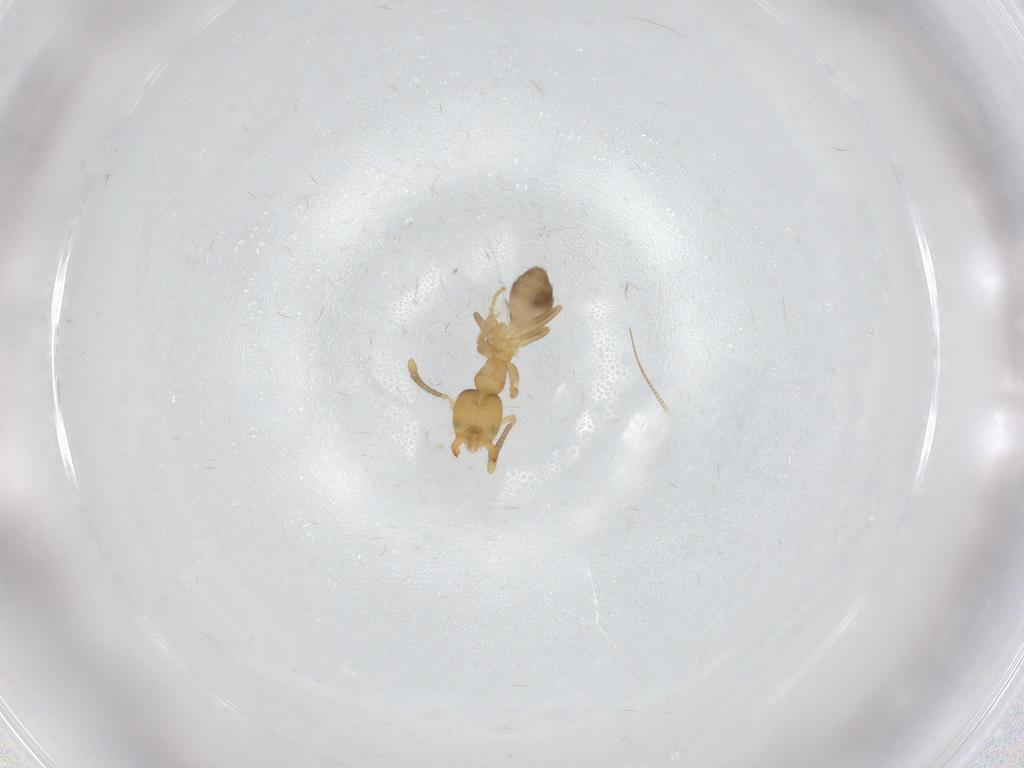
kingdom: Animalia
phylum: Arthropoda
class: Insecta
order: Hymenoptera
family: Formicidae
